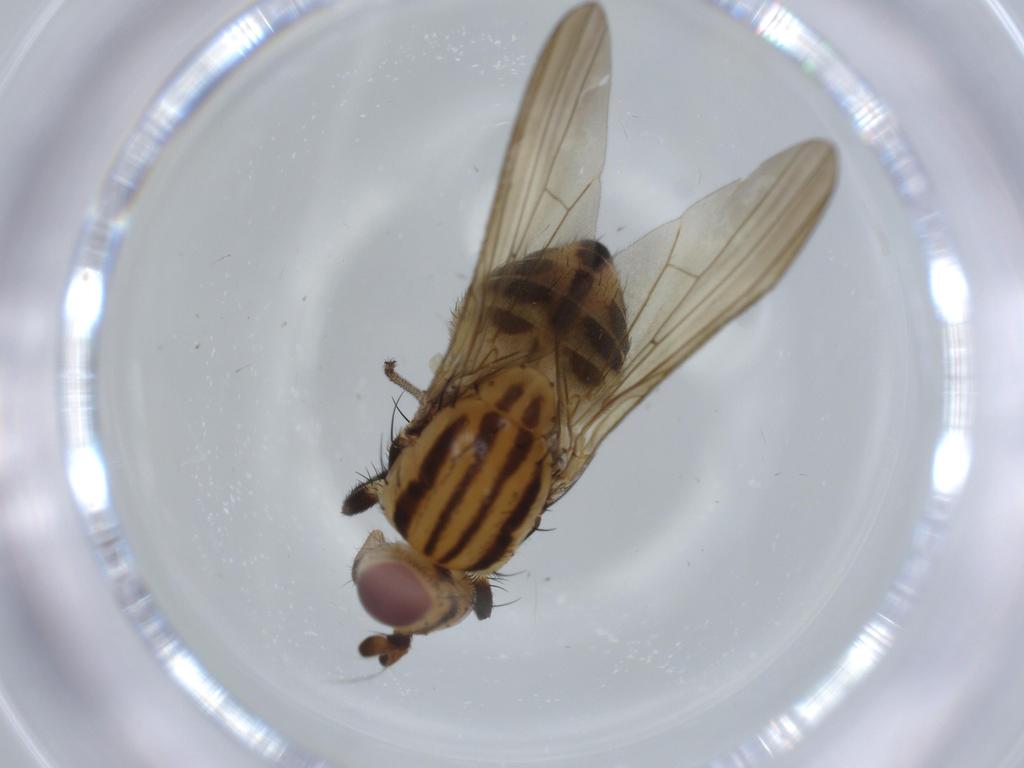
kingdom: Animalia
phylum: Arthropoda
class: Insecta
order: Diptera
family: Lauxaniidae
